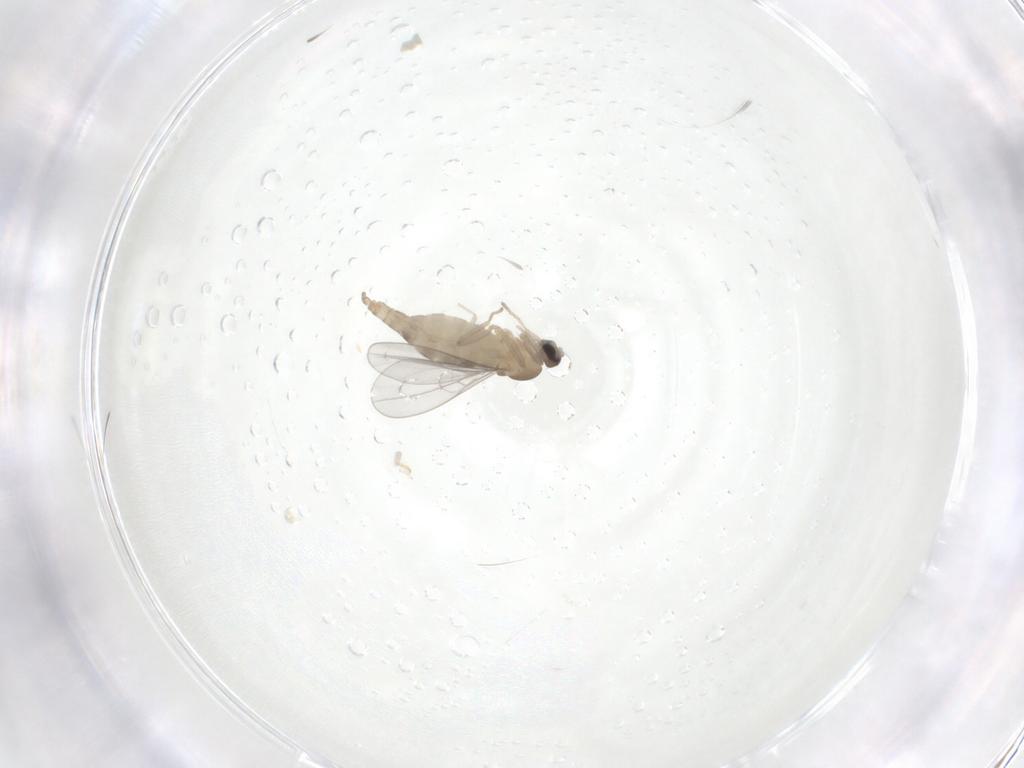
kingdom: Animalia
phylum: Arthropoda
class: Insecta
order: Diptera
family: Cecidomyiidae
